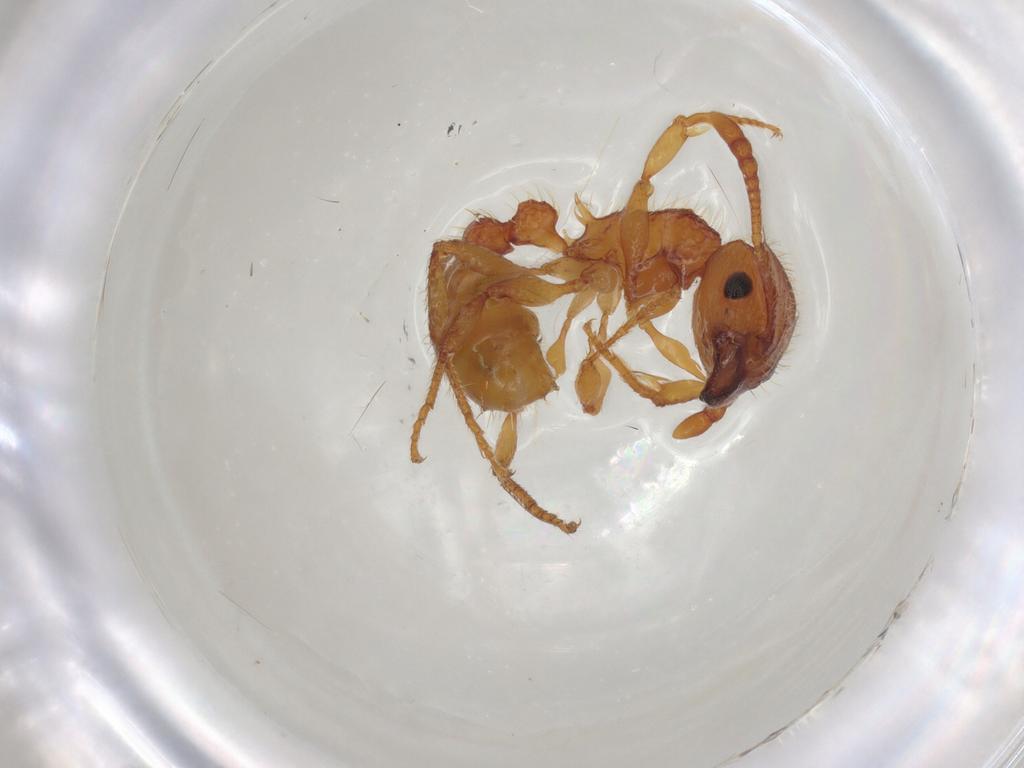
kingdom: Animalia
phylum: Arthropoda
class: Insecta
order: Hymenoptera
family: Formicidae
